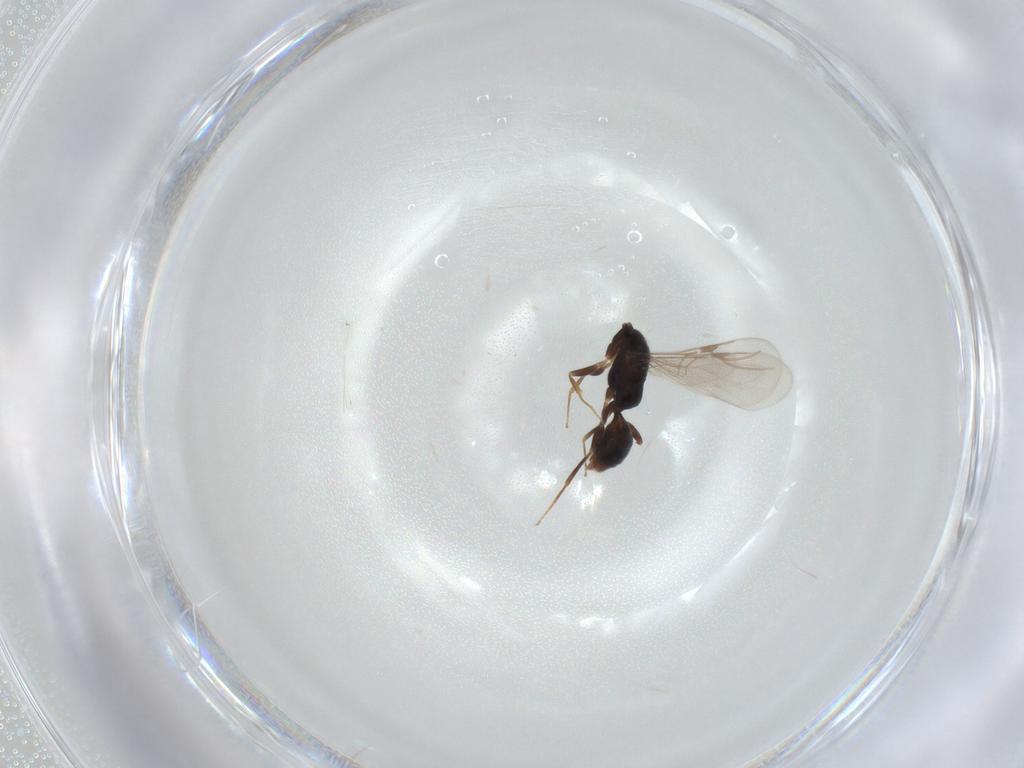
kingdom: Animalia
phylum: Arthropoda
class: Insecta
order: Hymenoptera
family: Bethylidae
